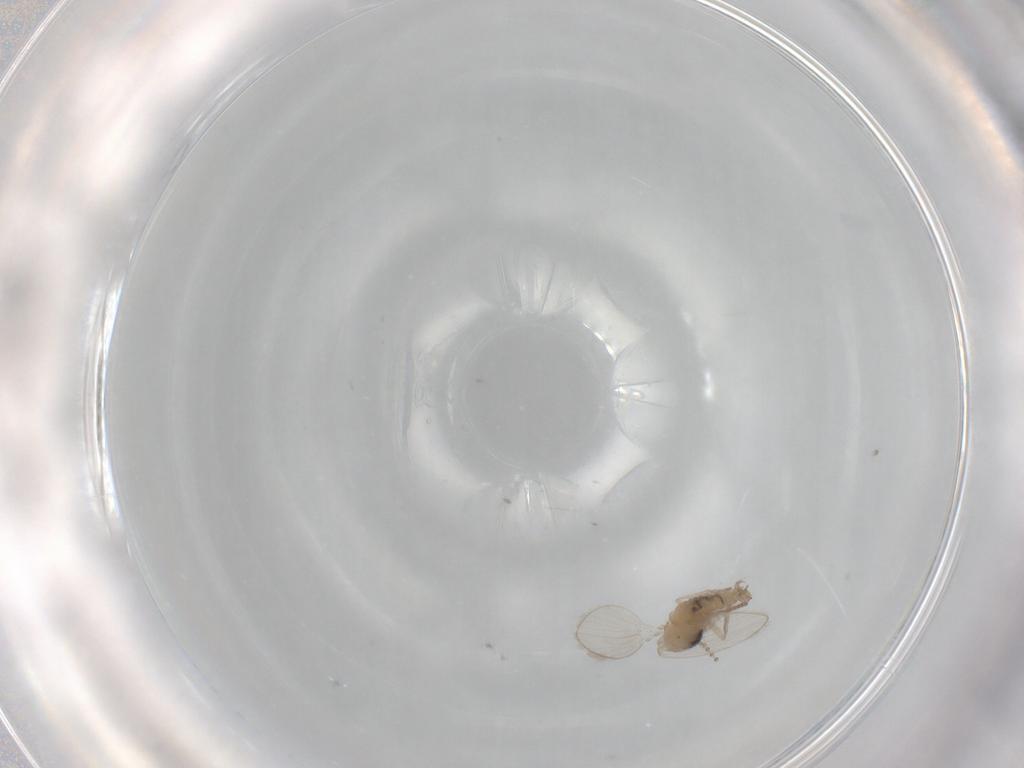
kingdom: Animalia
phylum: Arthropoda
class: Insecta
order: Diptera
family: Psychodidae
